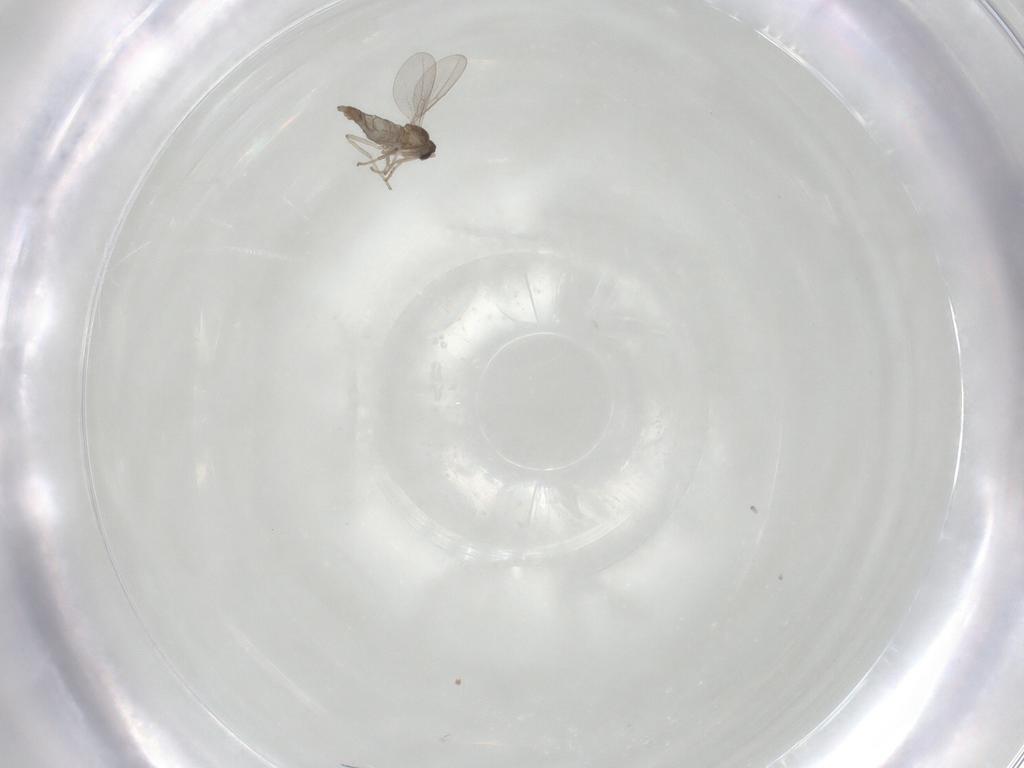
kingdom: Animalia
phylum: Arthropoda
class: Insecta
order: Diptera
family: Cecidomyiidae
